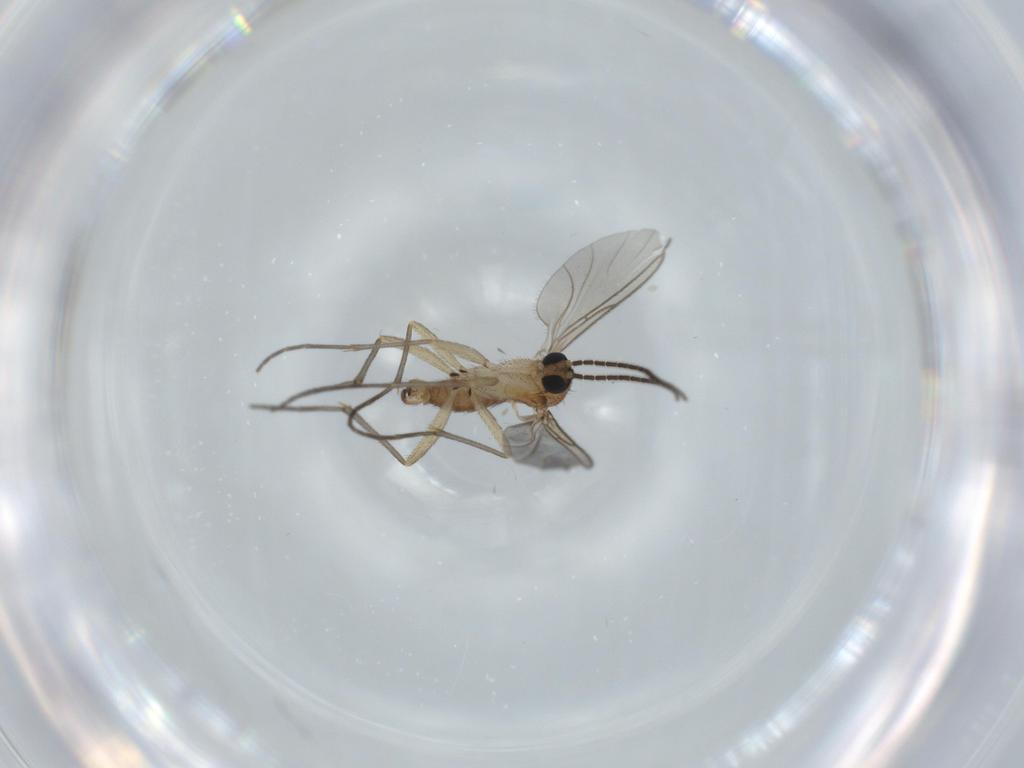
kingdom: Animalia
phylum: Arthropoda
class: Insecta
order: Diptera
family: Sciaridae
